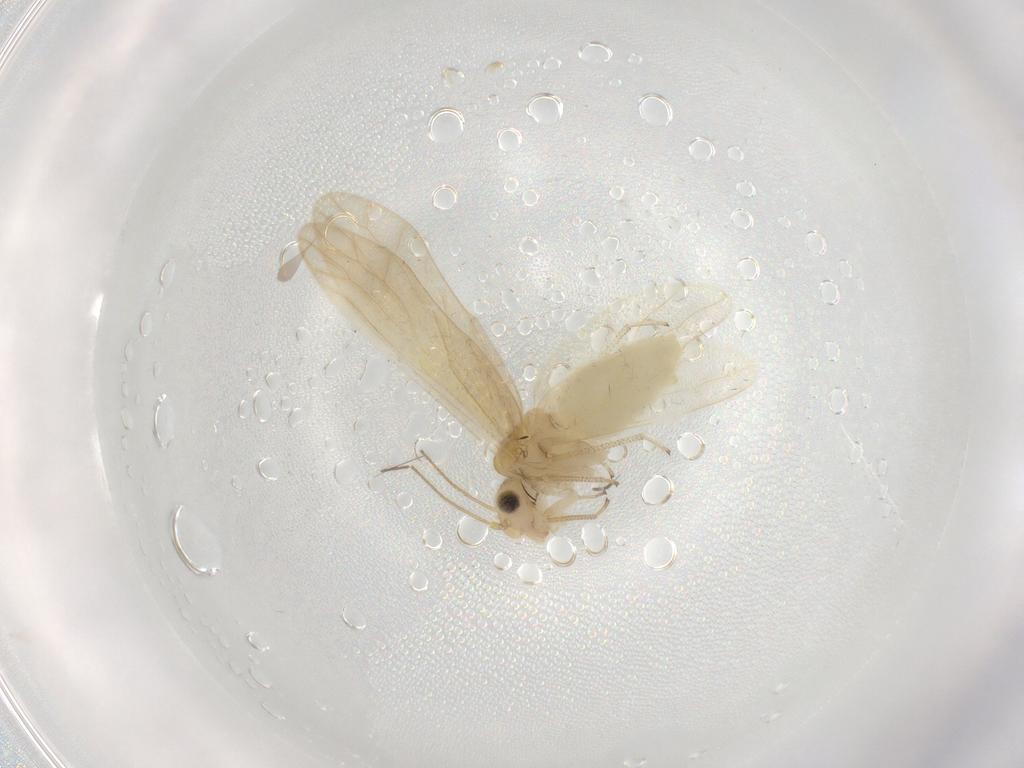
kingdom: Animalia
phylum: Arthropoda
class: Insecta
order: Psocodea
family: Caeciliusidae
